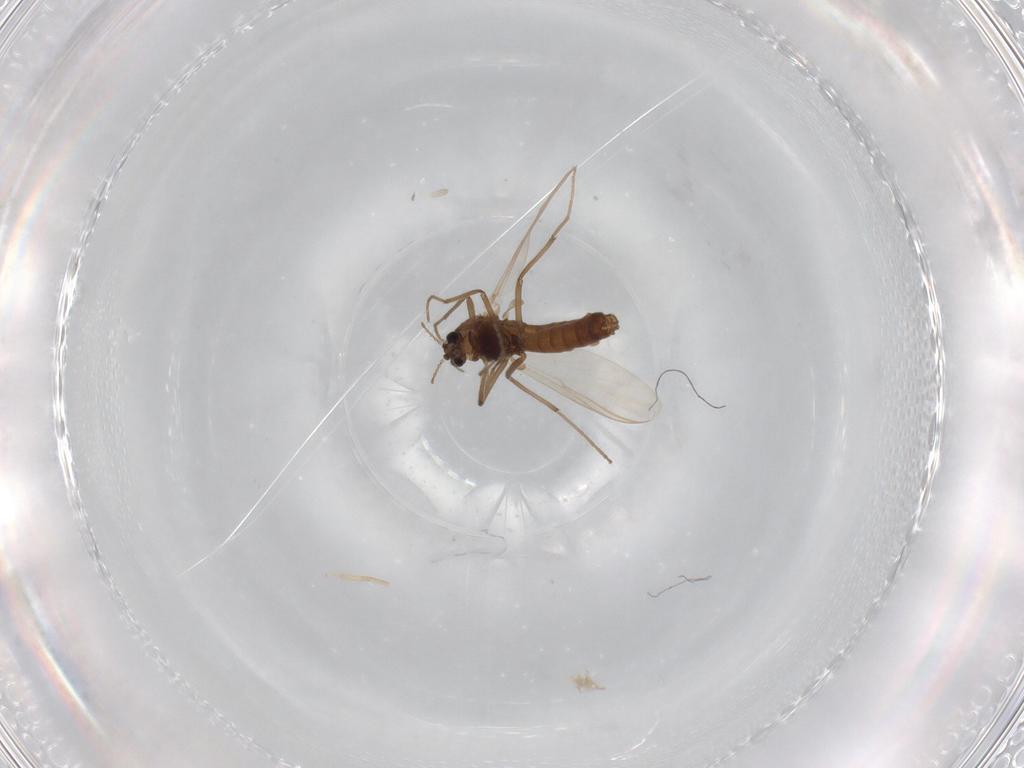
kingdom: Animalia
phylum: Arthropoda
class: Insecta
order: Diptera
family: Chironomidae
